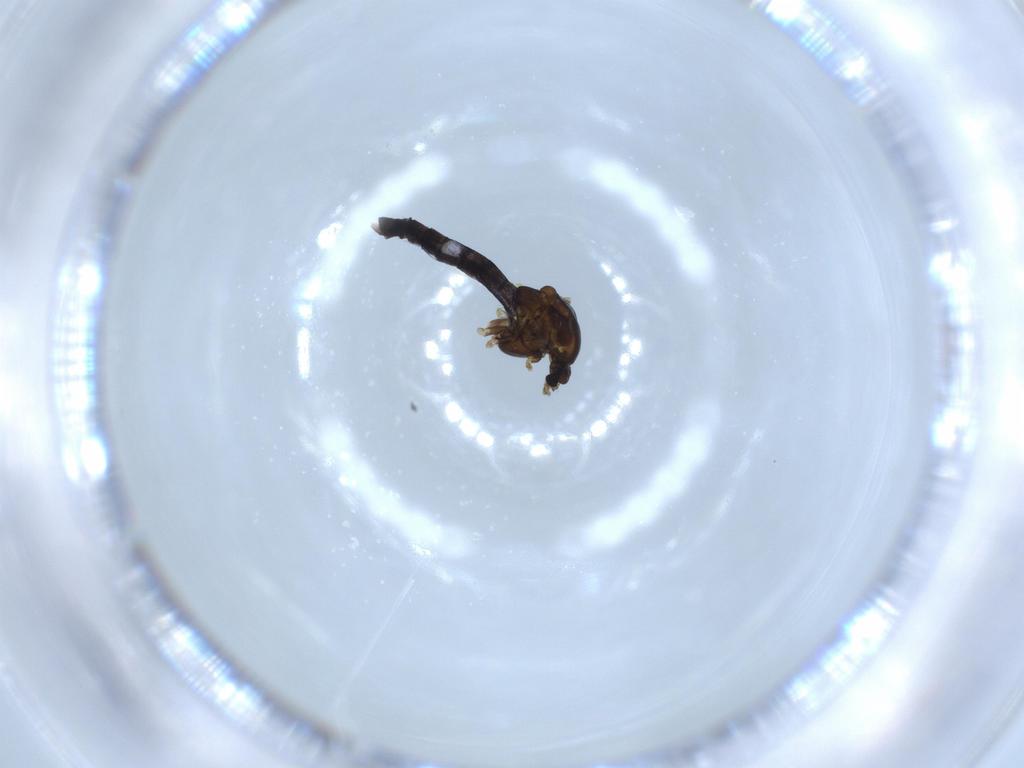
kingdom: Animalia
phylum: Arthropoda
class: Insecta
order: Diptera
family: Chironomidae
